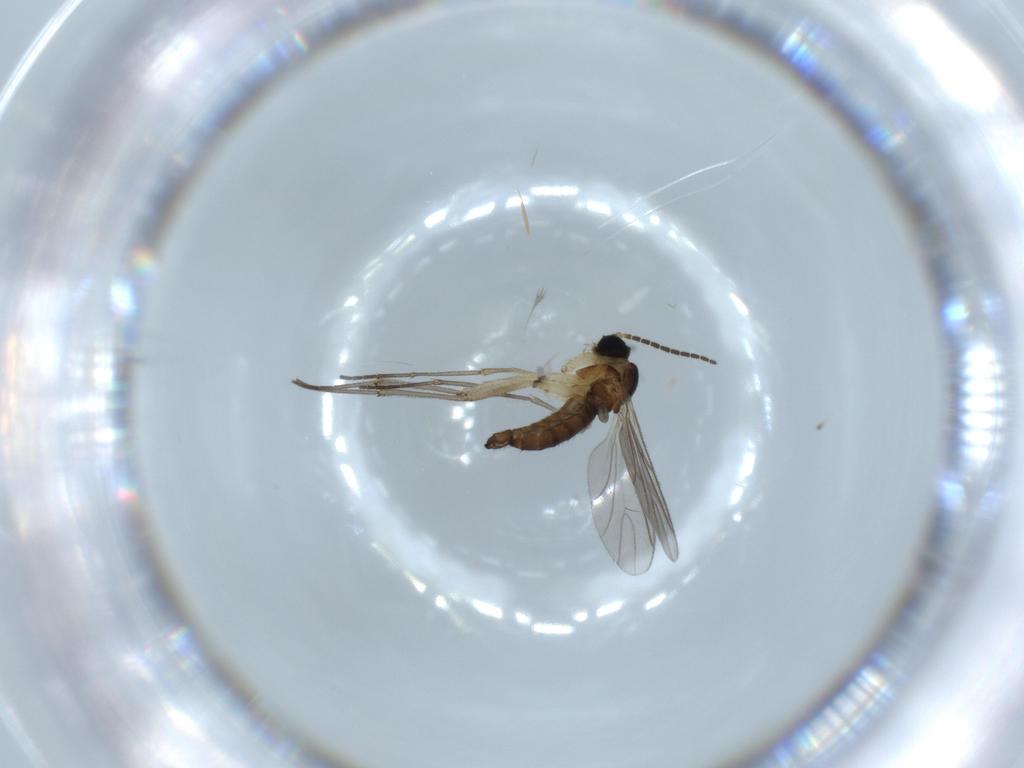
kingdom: Animalia
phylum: Arthropoda
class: Insecta
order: Diptera
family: Sciaridae
